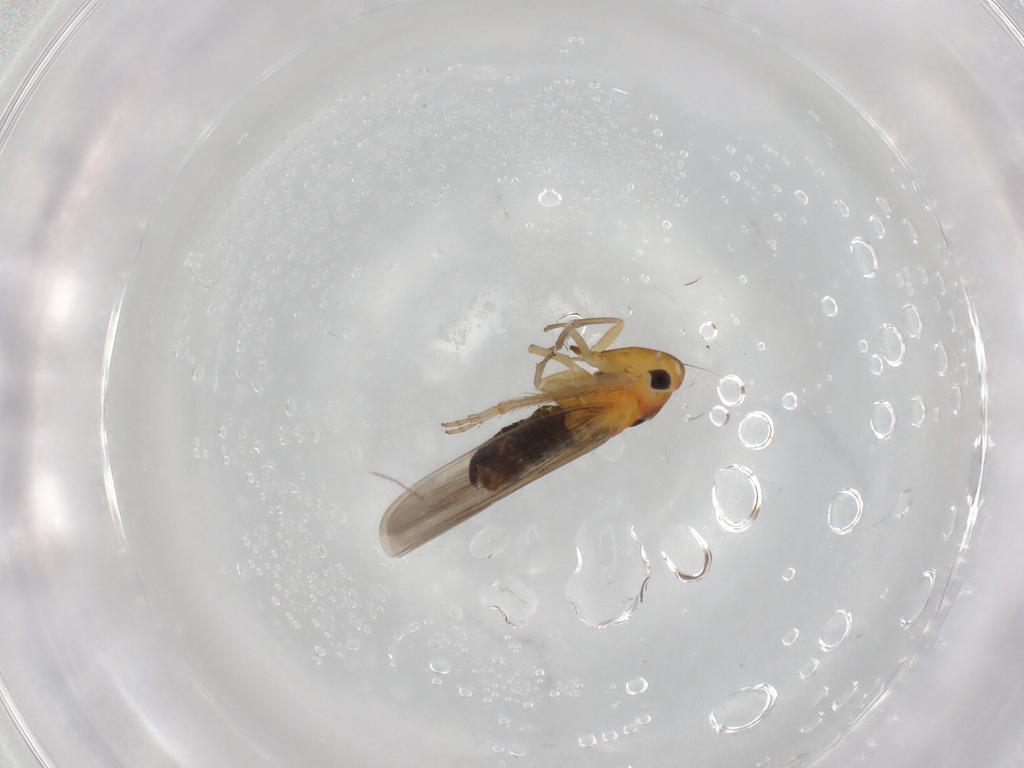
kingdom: Animalia
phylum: Arthropoda
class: Insecta
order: Hemiptera
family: Cicadellidae
